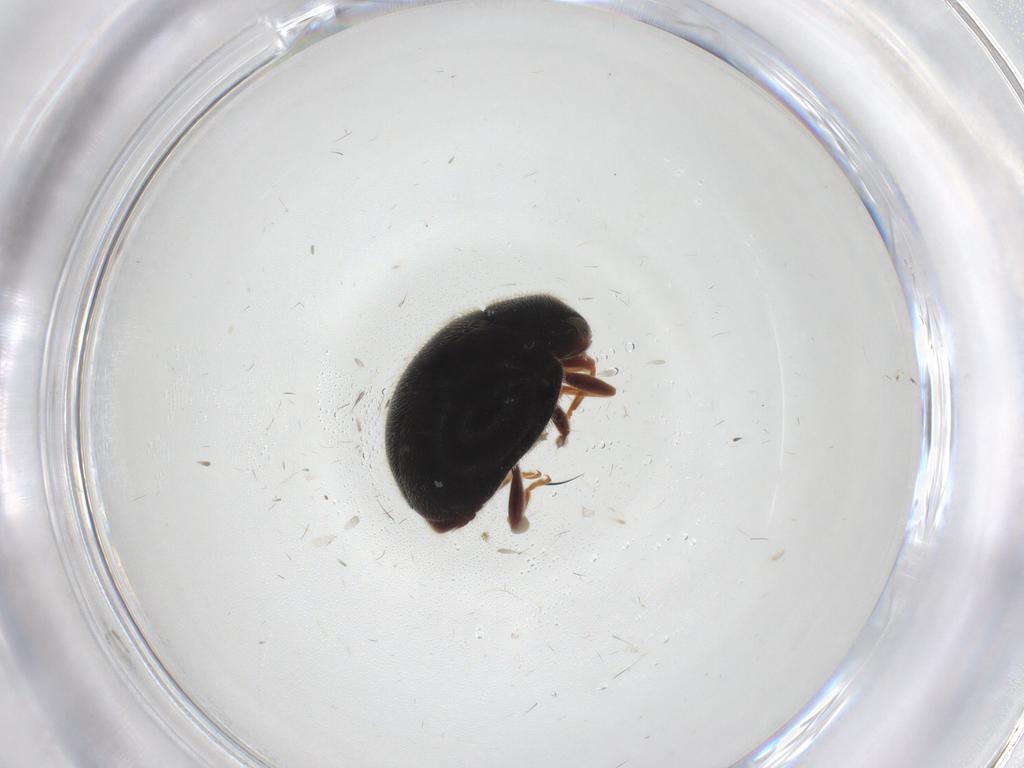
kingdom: Animalia
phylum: Arthropoda
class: Insecta
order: Coleoptera
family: Coccinellidae
